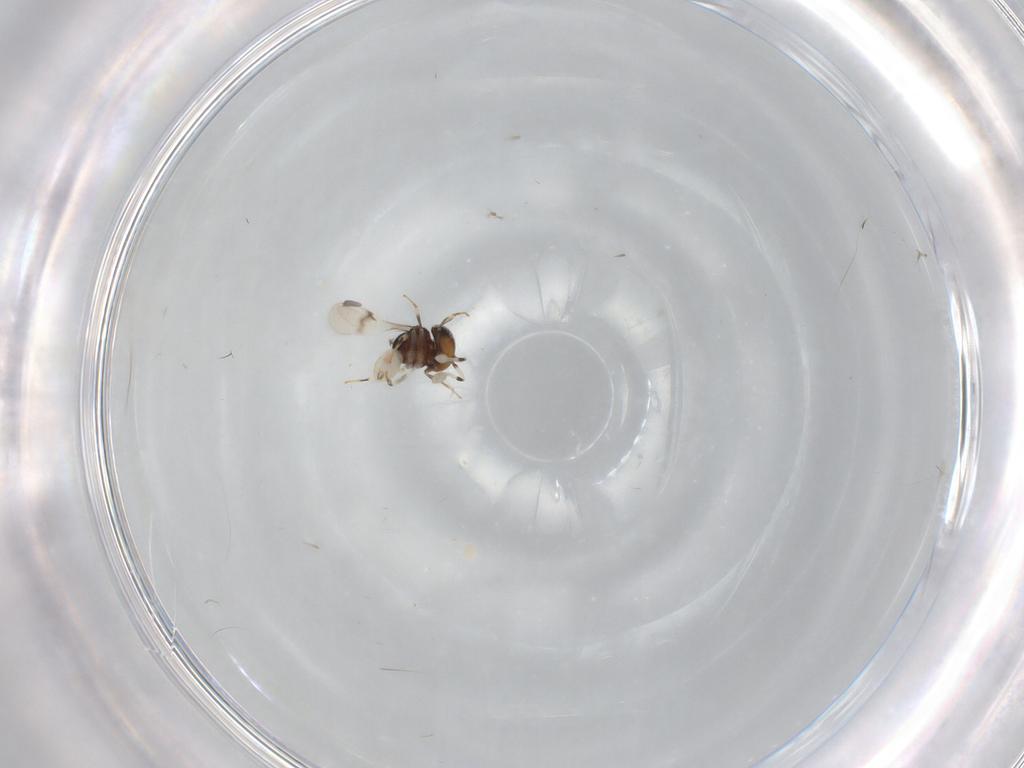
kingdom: Animalia
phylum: Arthropoda
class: Insecta
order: Hymenoptera
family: Scelionidae
